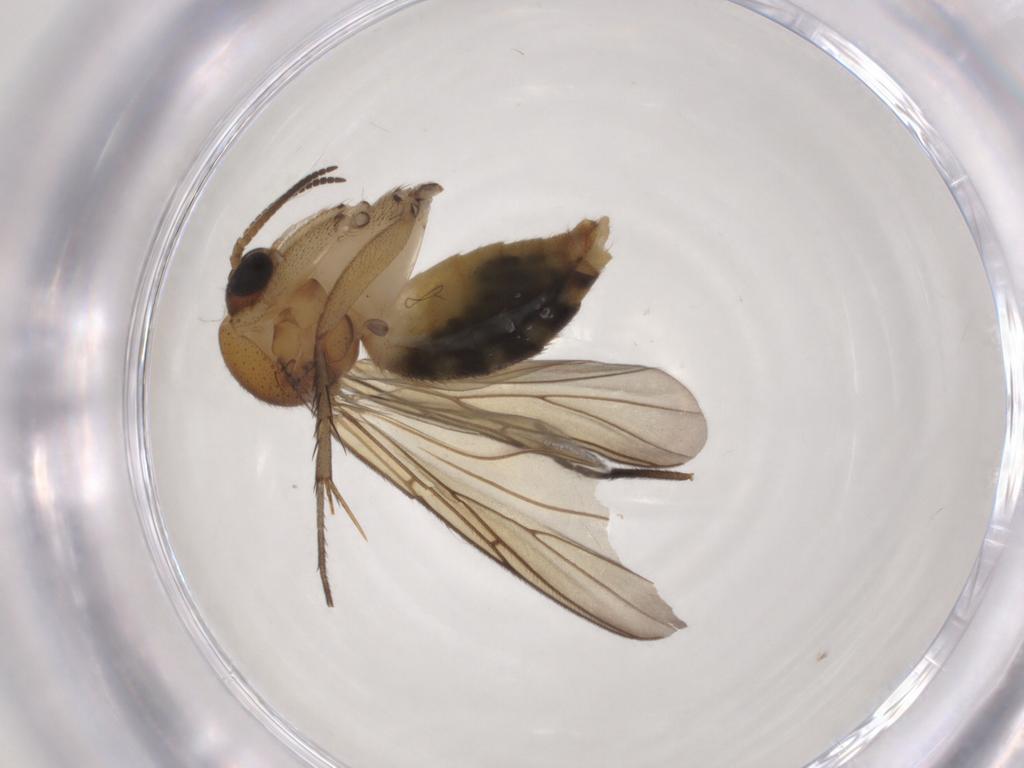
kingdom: Animalia
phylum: Arthropoda
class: Insecta
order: Diptera
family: Mycetophilidae
